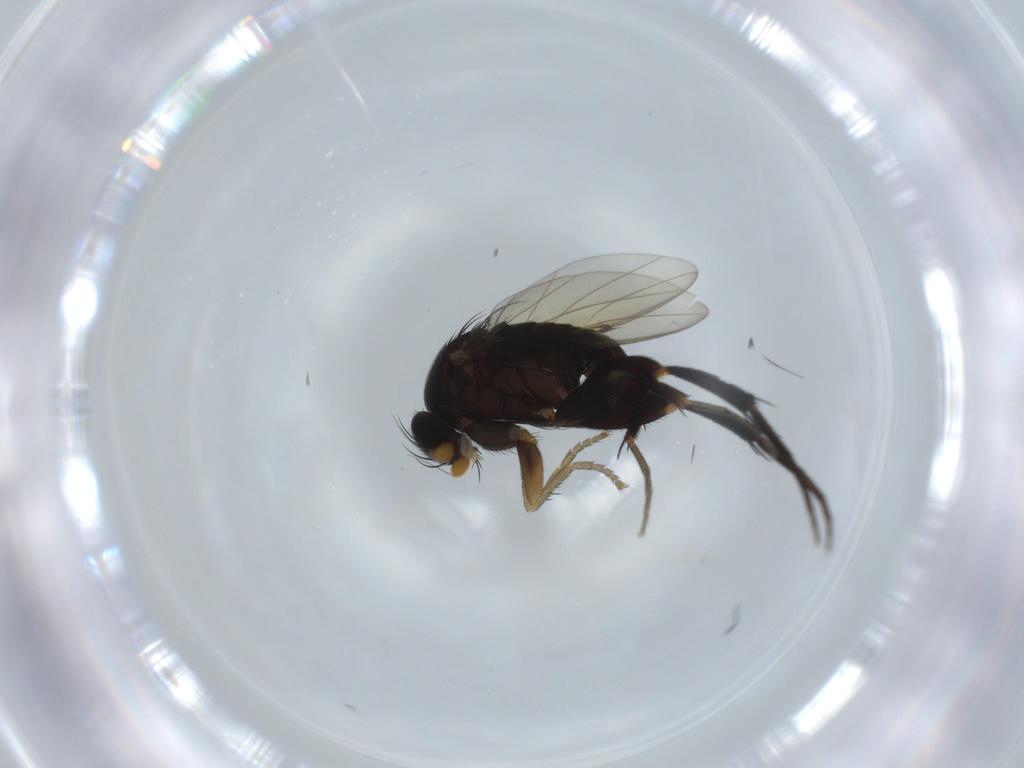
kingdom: Animalia
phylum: Arthropoda
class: Insecta
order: Diptera
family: Phoridae
